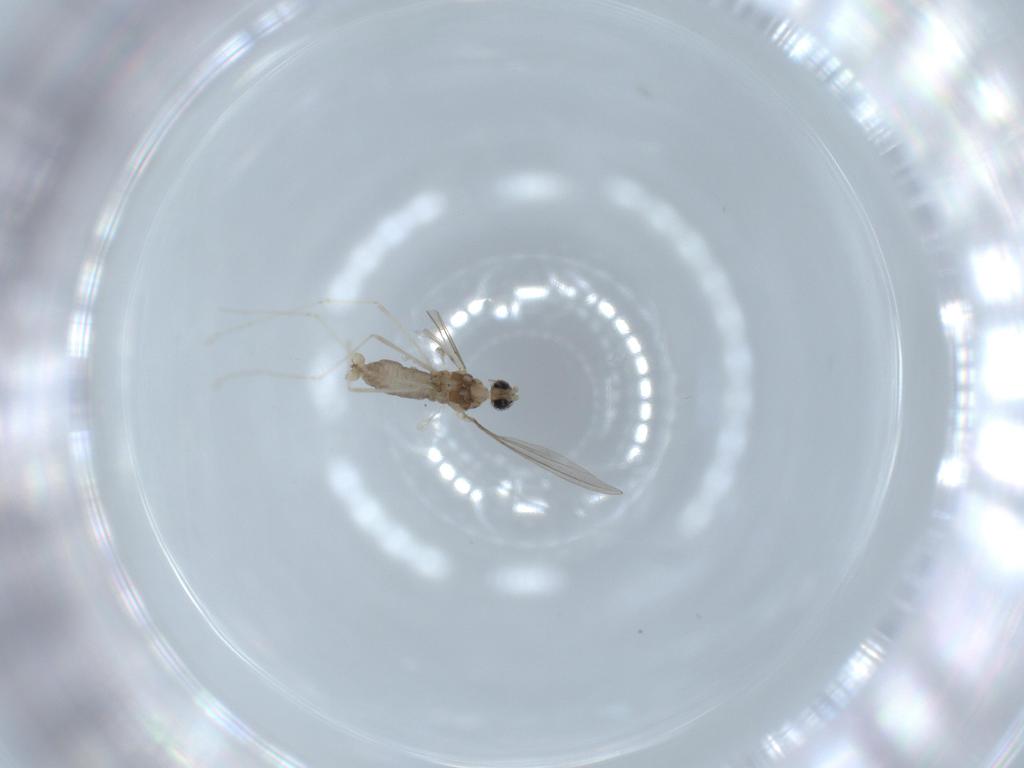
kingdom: Animalia
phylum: Arthropoda
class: Insecta
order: Diptera
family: Cecidomyiidae
